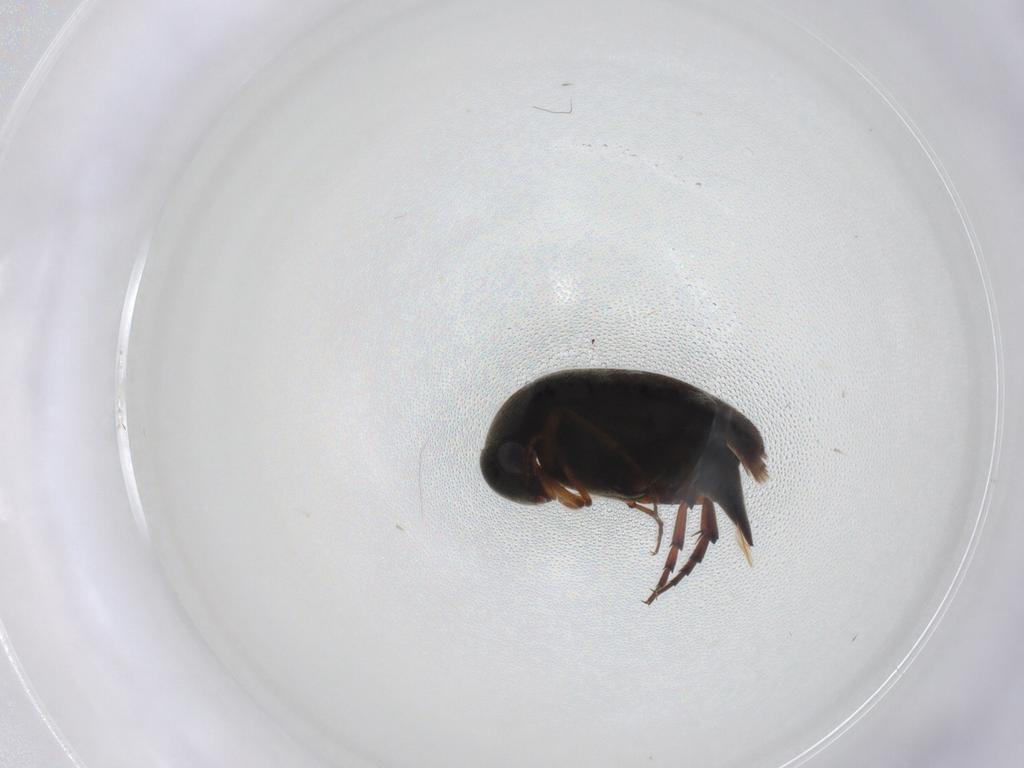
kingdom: Animalia
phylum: Arthropoda
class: Insecta
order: Coleoptera
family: Mordellidae
